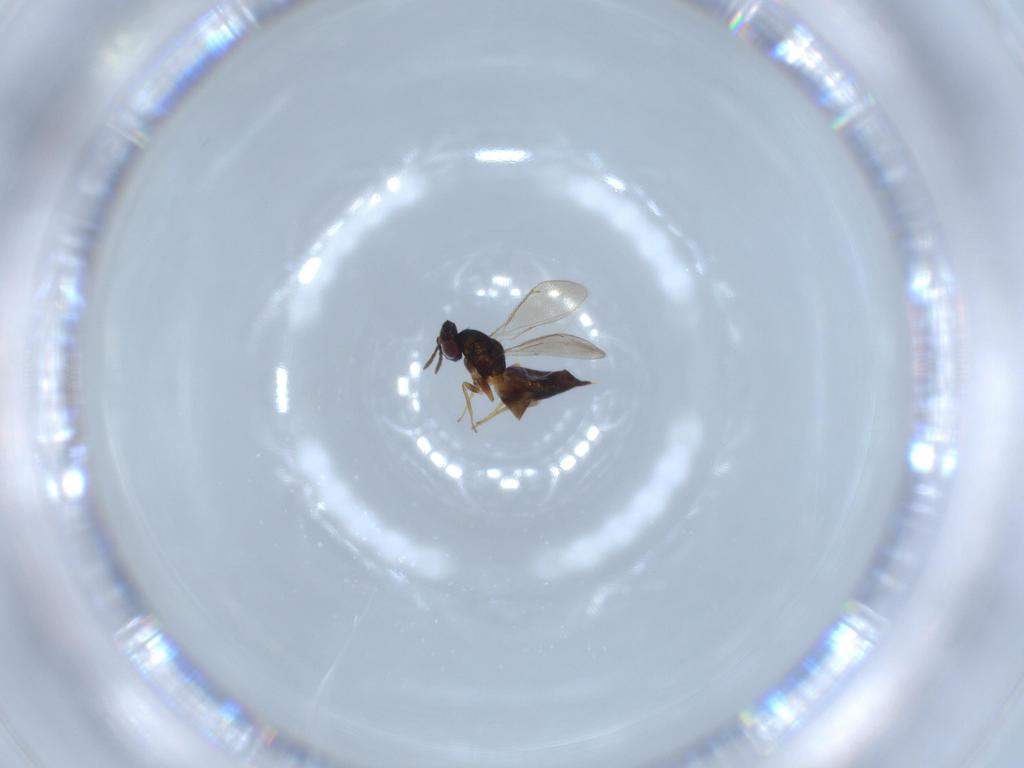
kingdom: Animalia
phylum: Arthropoda
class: Insecta
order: Hymenoptera
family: Eulophidae
